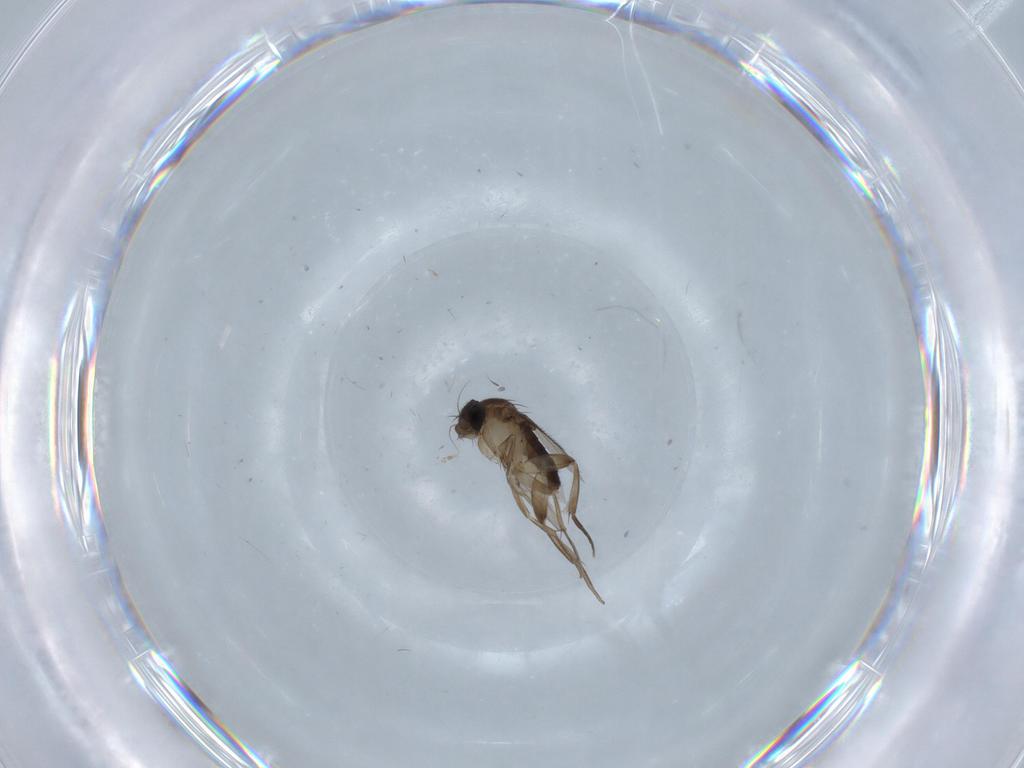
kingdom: Animalia
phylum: Arthropoda
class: Insecta
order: Diptera
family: Phoridae
